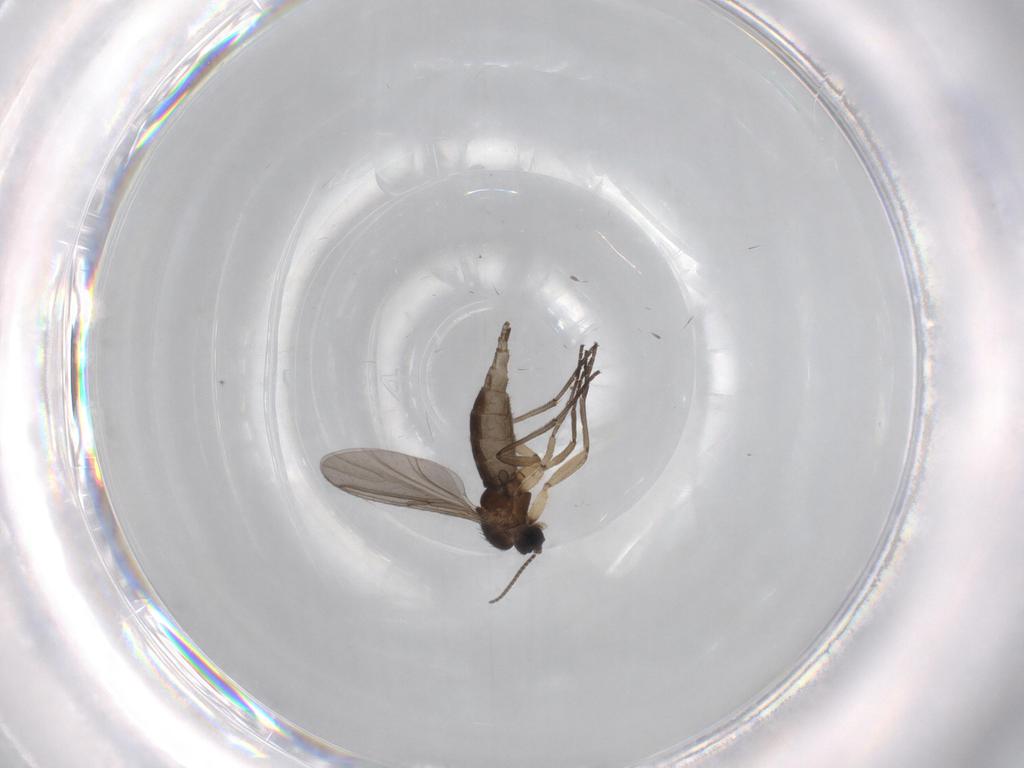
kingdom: Animalia
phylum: Arthropoda
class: Insecta
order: Diptera
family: Sciaridae
